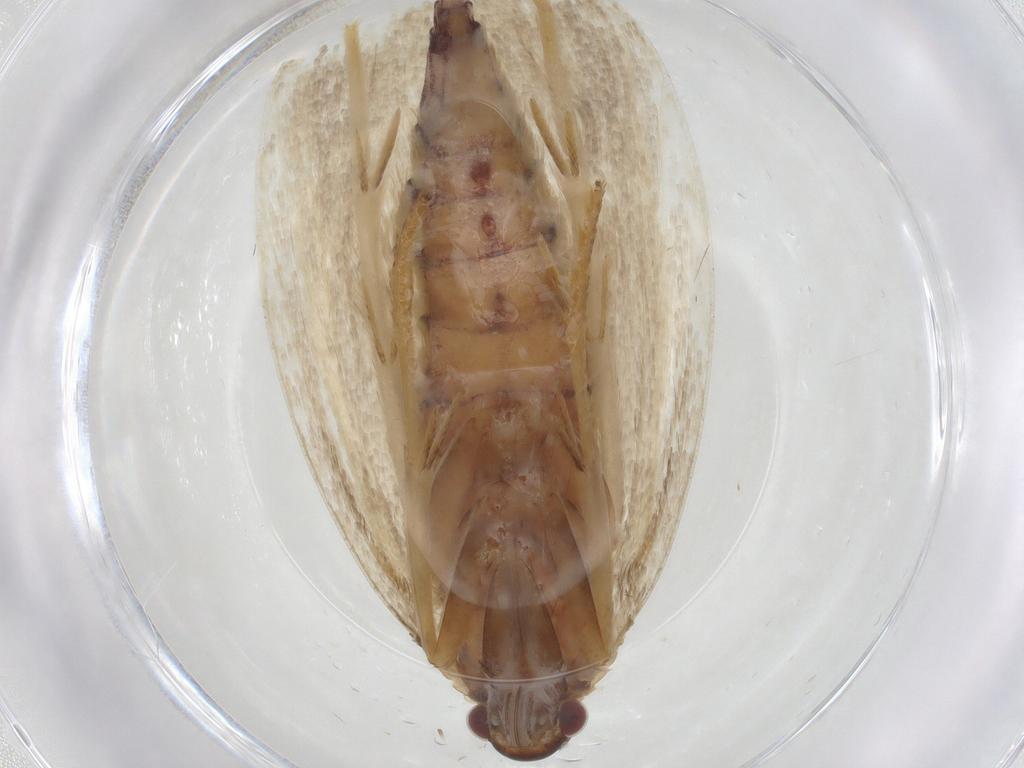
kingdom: Animalia
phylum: Arthropoda
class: Insecta
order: Lepidoptera
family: Oecophoridae
